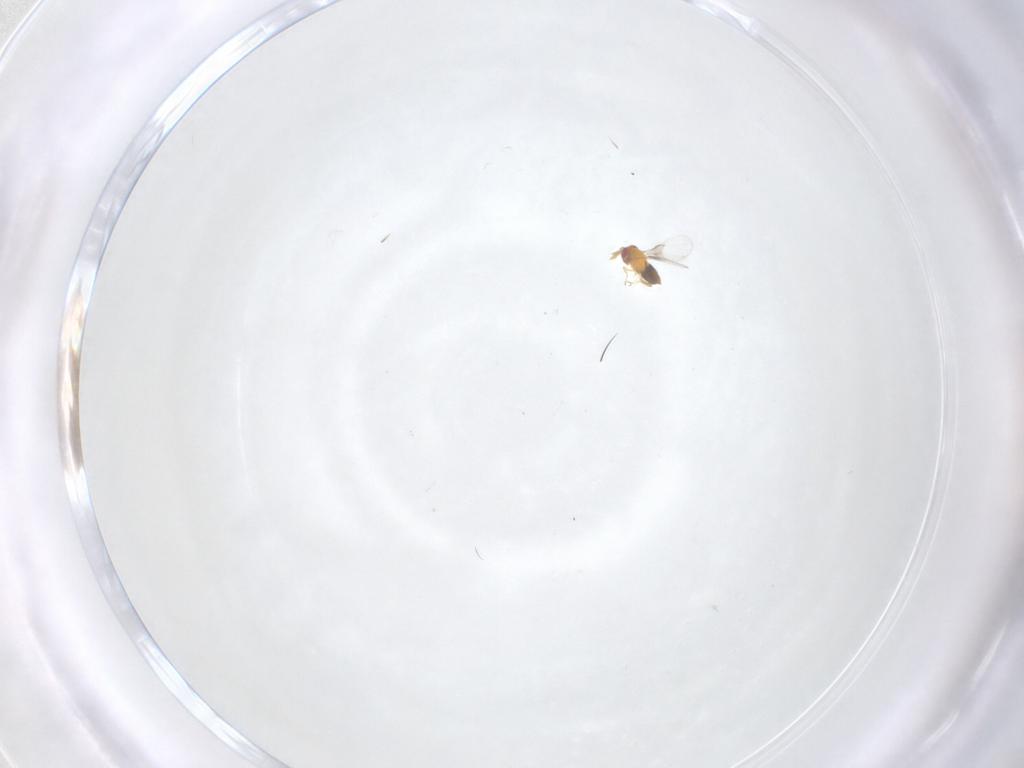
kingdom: Animalia
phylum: Arthropoda
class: Insecta
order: Hymenoptera
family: Trichogrammatidae
